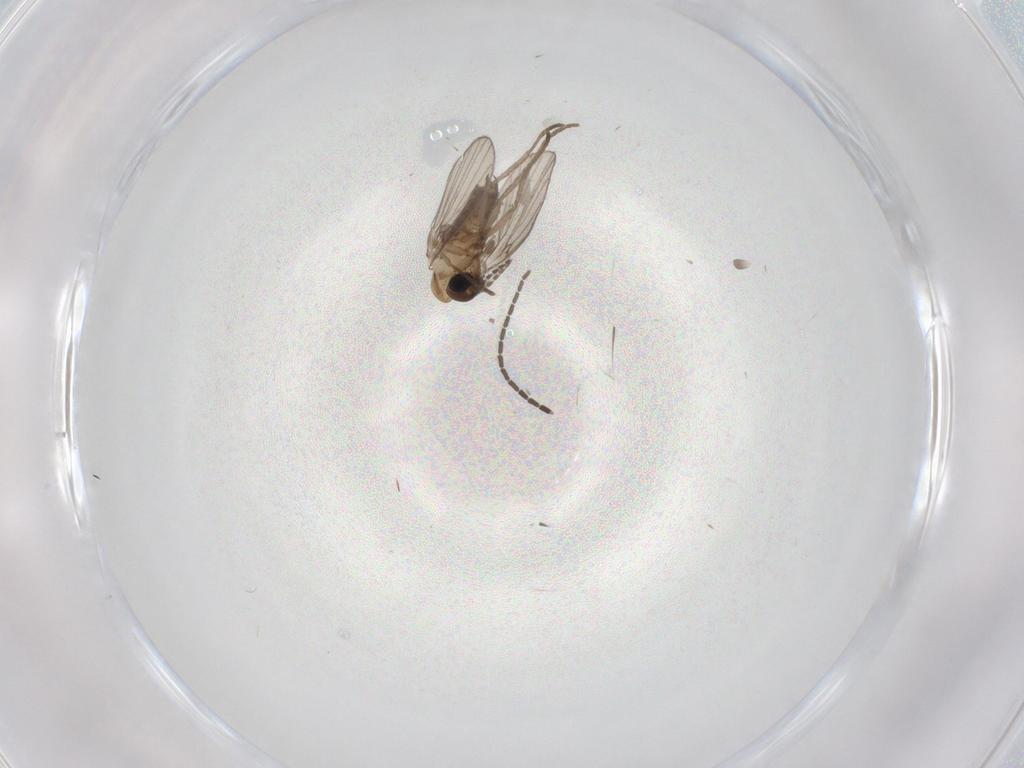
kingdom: Animalia
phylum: Arthropoda
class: Insecta
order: Diptera
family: Sciaridae
